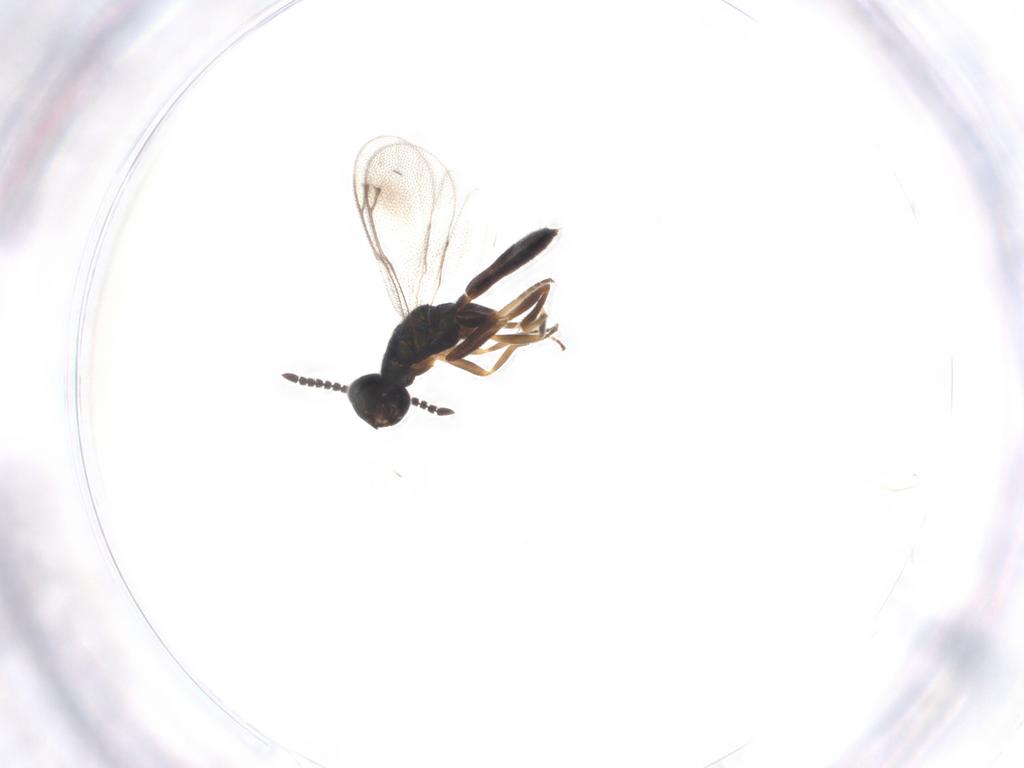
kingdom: Animalia
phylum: Arthropoda
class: Insecta
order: Hymenoptera
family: Cleonyminae
